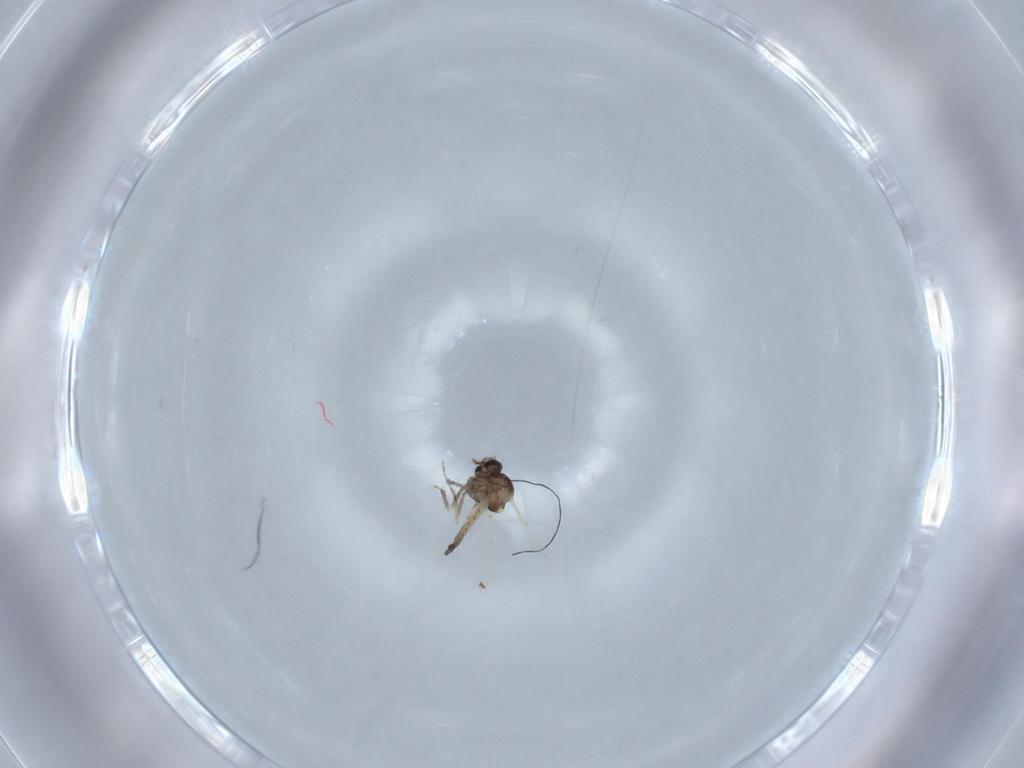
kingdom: Animalia
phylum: Arthropoda
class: Insecta
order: Diptera
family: Ceratopogonidae
